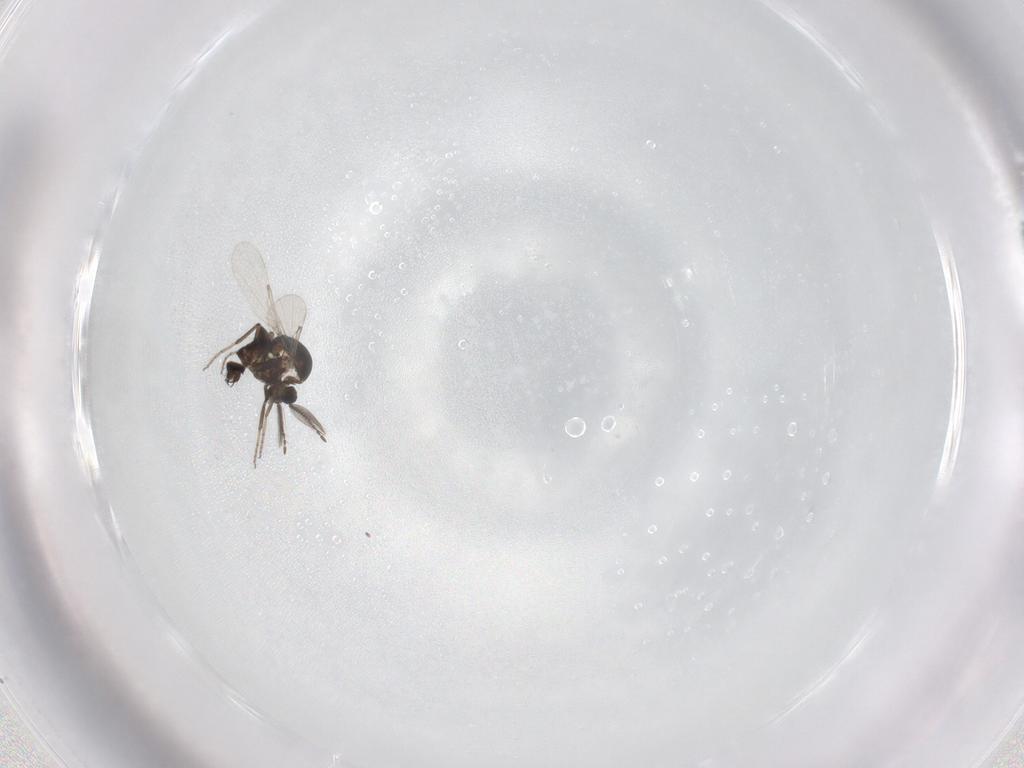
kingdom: Animalia
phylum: Arthropoda
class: Insecta
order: Diptera
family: Ceratopogonidae
